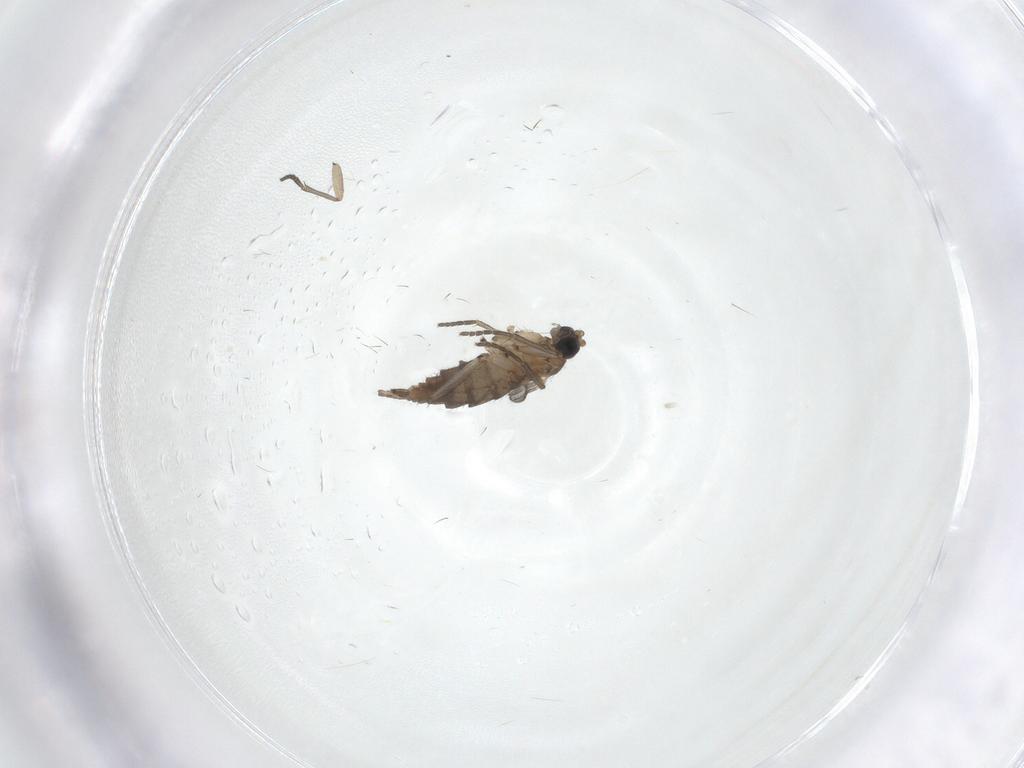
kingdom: Animalia
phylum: Arthropoda
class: Insecta
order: Diptera
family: Sciaridae
